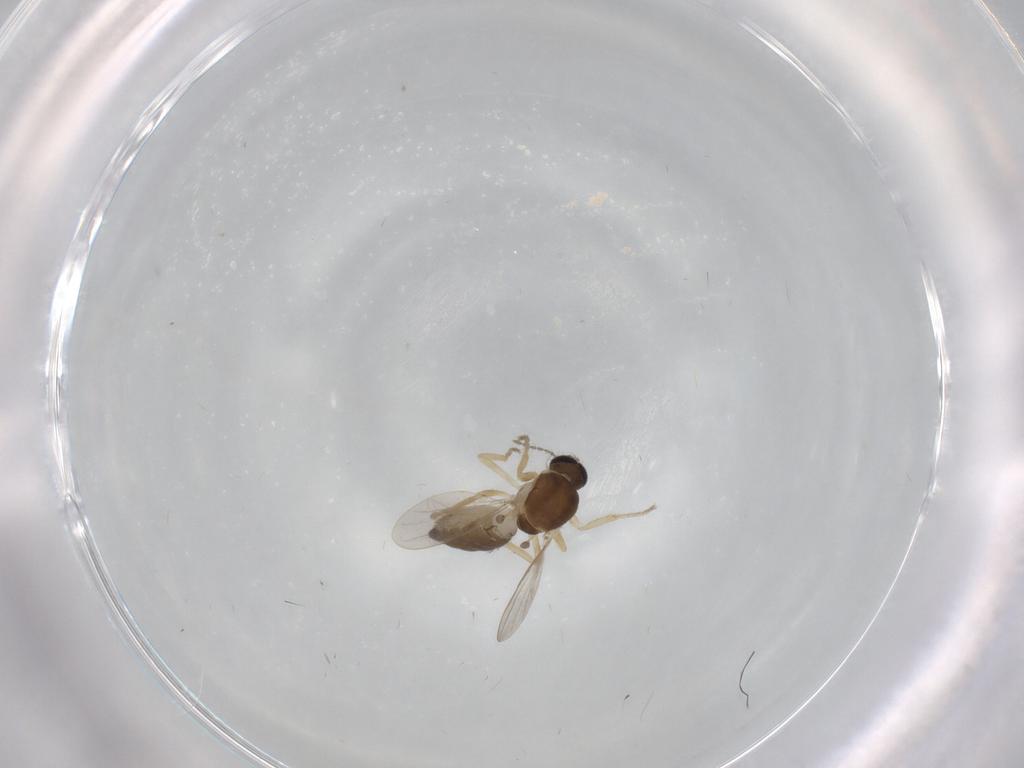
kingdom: Animalia
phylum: Arthropoda
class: Insecta
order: Diptera
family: Ceratopogonidae
